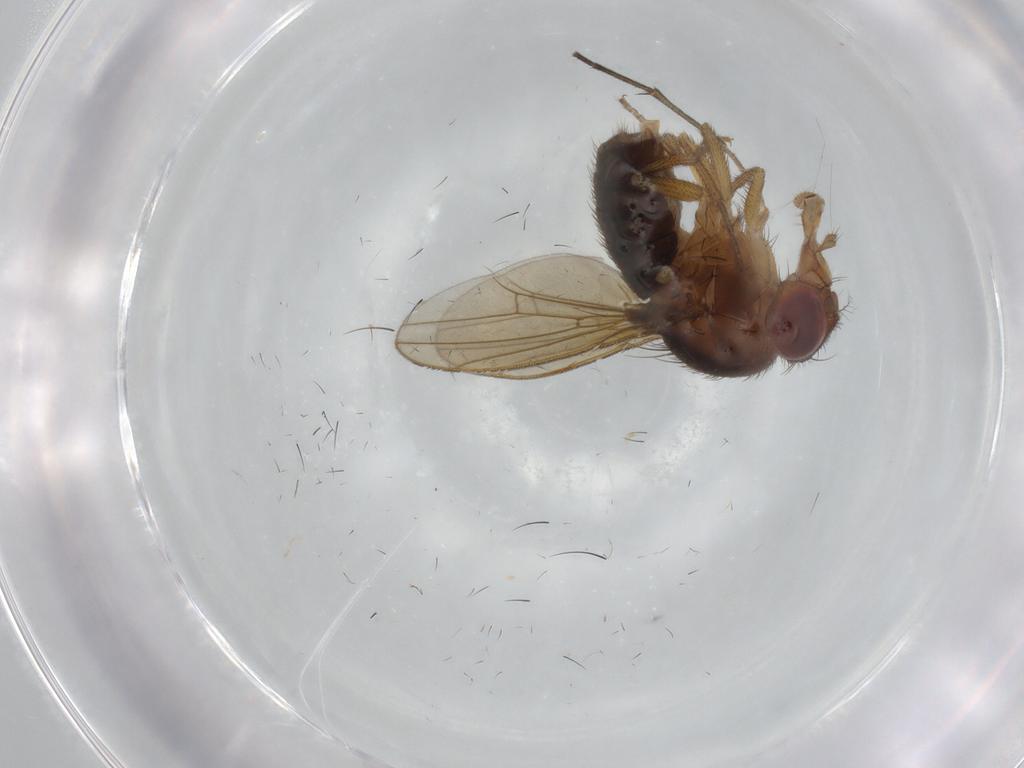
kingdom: Animalia
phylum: Arthropoda
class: Insecta
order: Diptera
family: Drosophilidae
